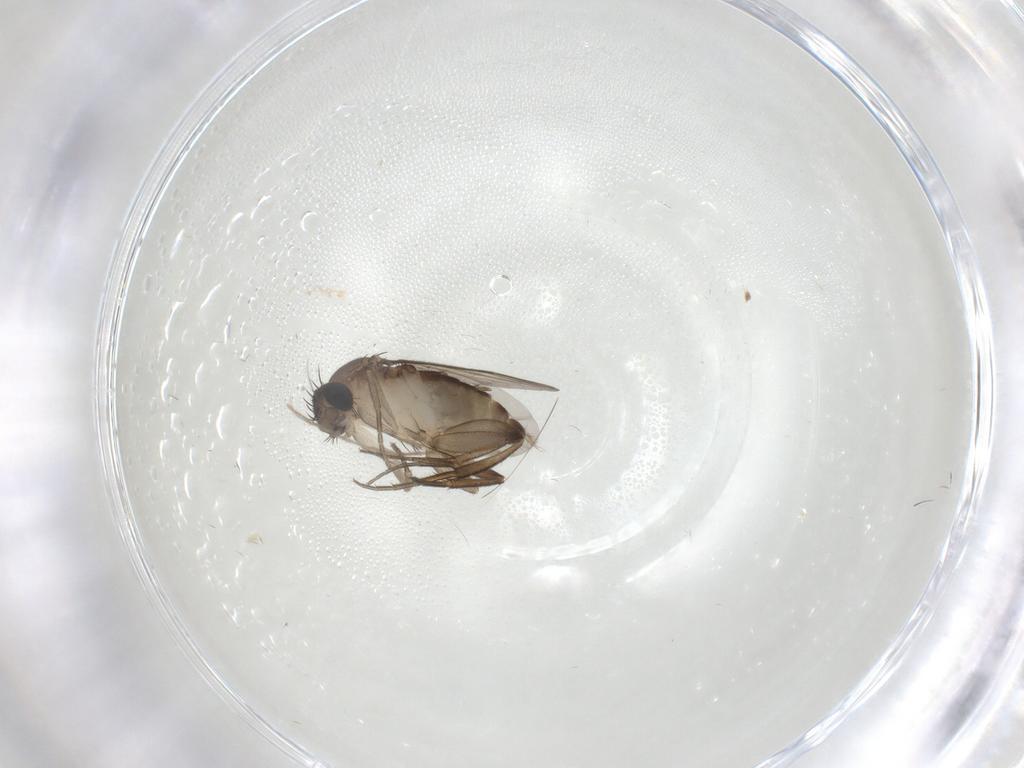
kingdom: Animalia
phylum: Arthropoda
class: Insecta
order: Diptera
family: Chironomidae
